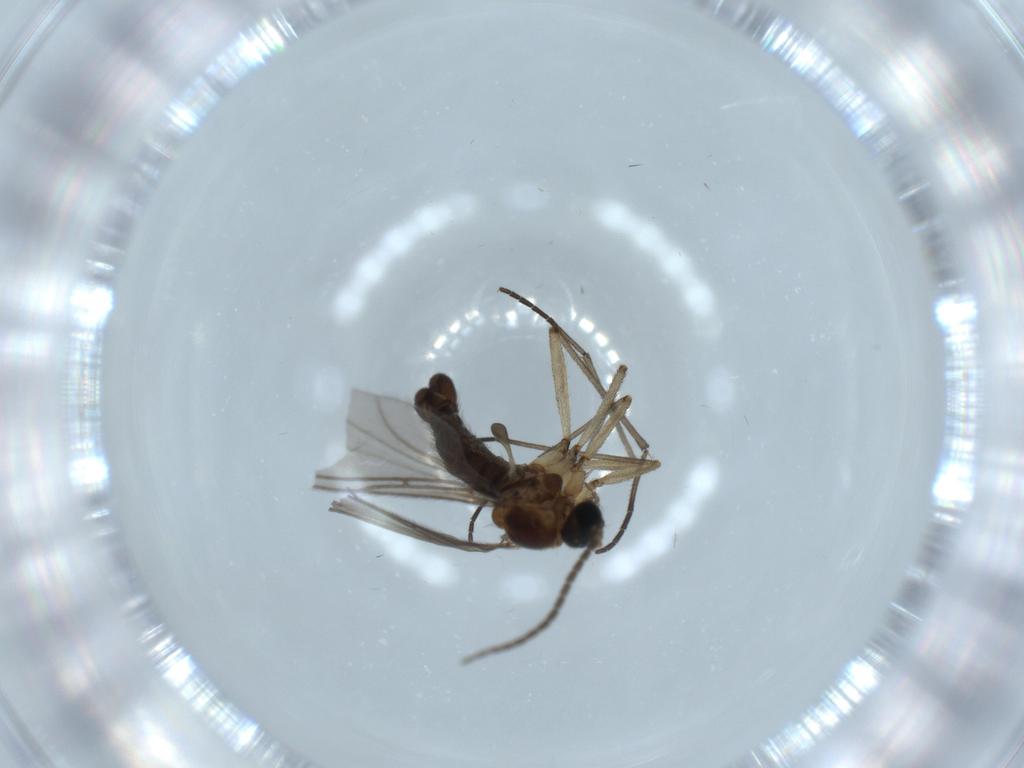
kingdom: Animalia
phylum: Arthropoda
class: Insecta
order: Diptera
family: Sciaridae
